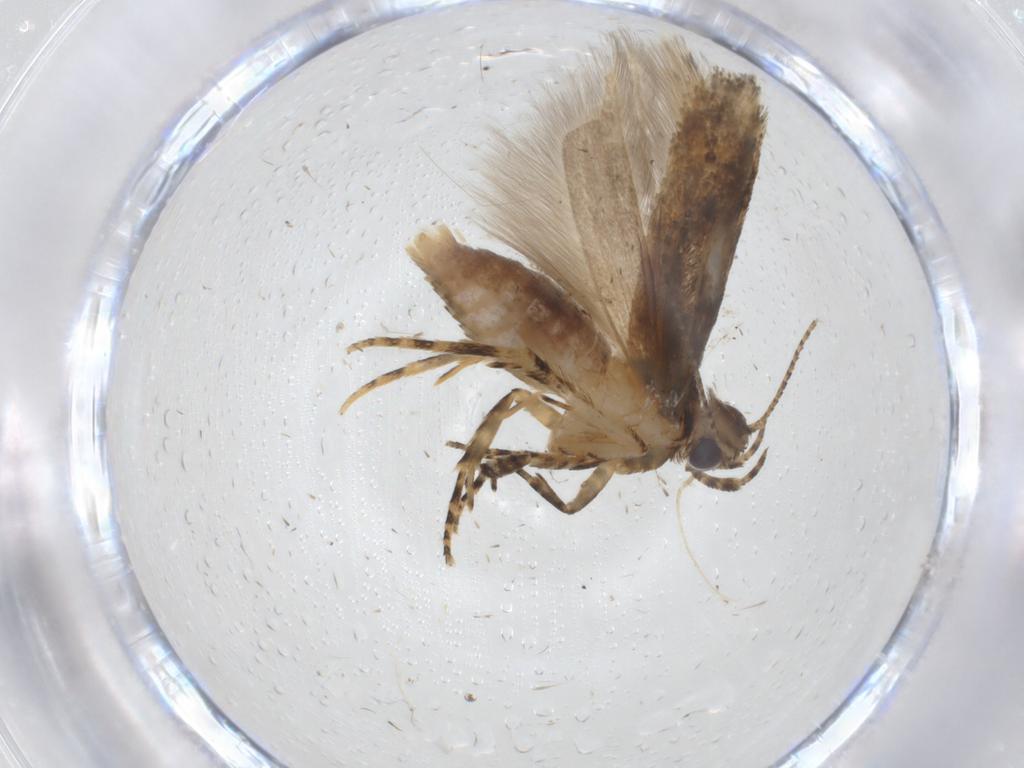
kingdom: Animalia
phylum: Arthropoda
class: Insecta
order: Lepidoptera
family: Gelechiidae
